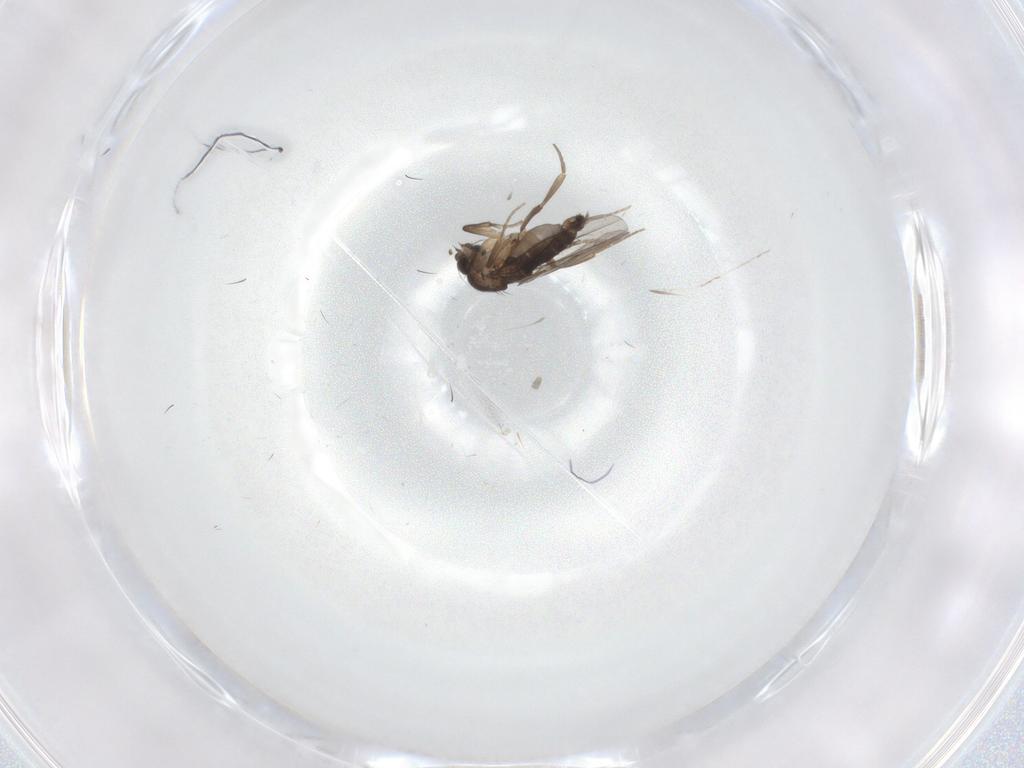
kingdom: Animalia
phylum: Arthropoda
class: Insecta
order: Diptera
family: Phoridae
